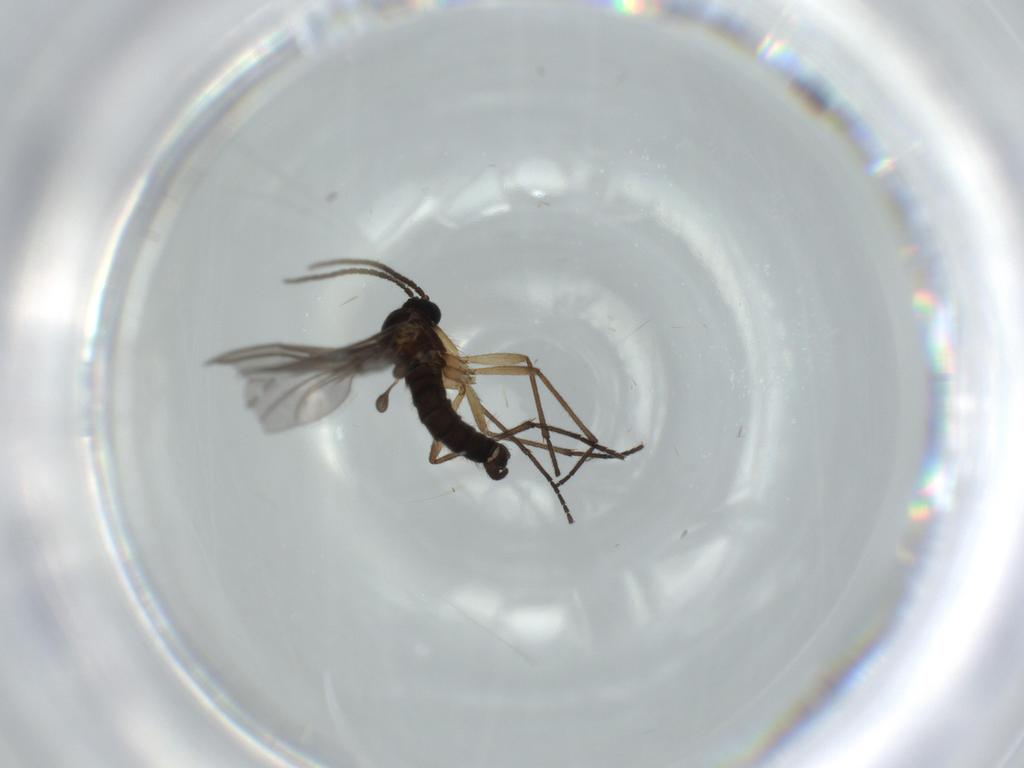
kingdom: Animalia
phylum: Arthropoda
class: Insecta
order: Diptera
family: Sciaridae
